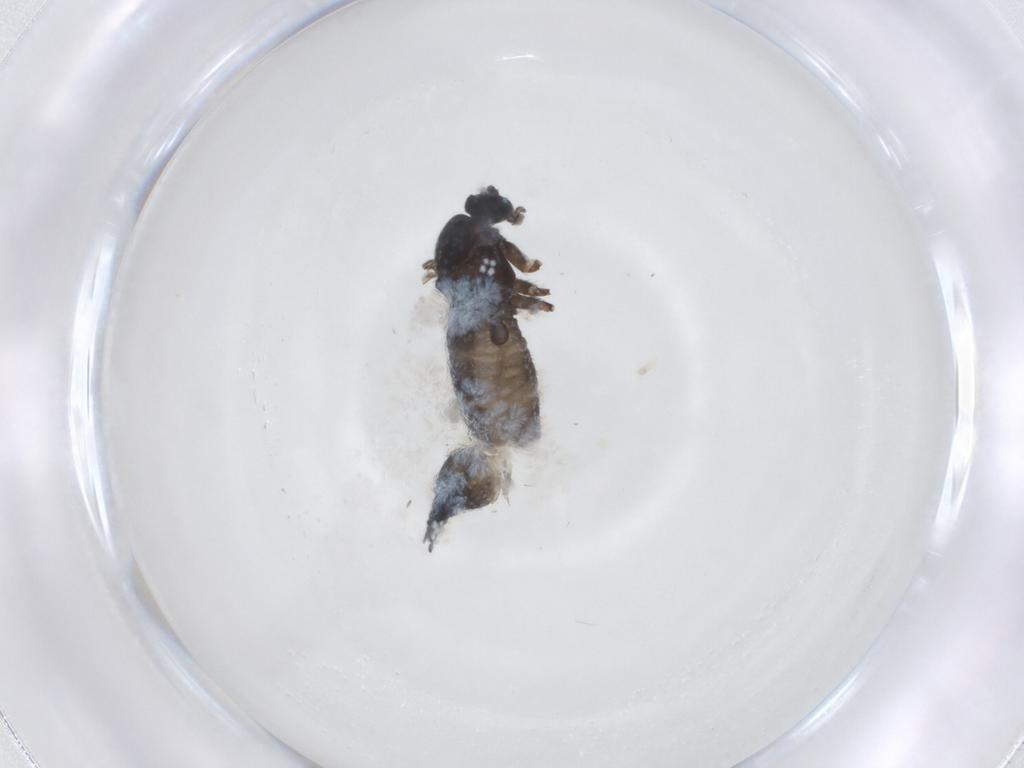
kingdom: Animalia
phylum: Arthropoda
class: Insecta
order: Diptera
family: Sciaridae
